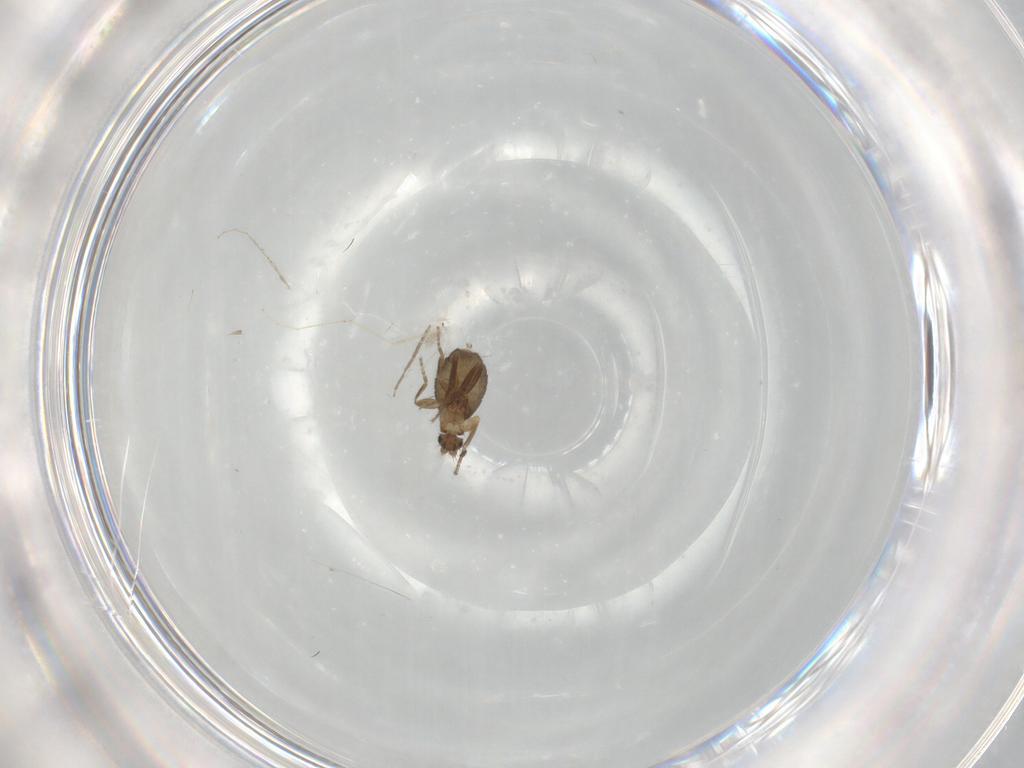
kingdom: Animalia
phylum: Arthropoda
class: Insecta
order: Diptera
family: Phoridae
